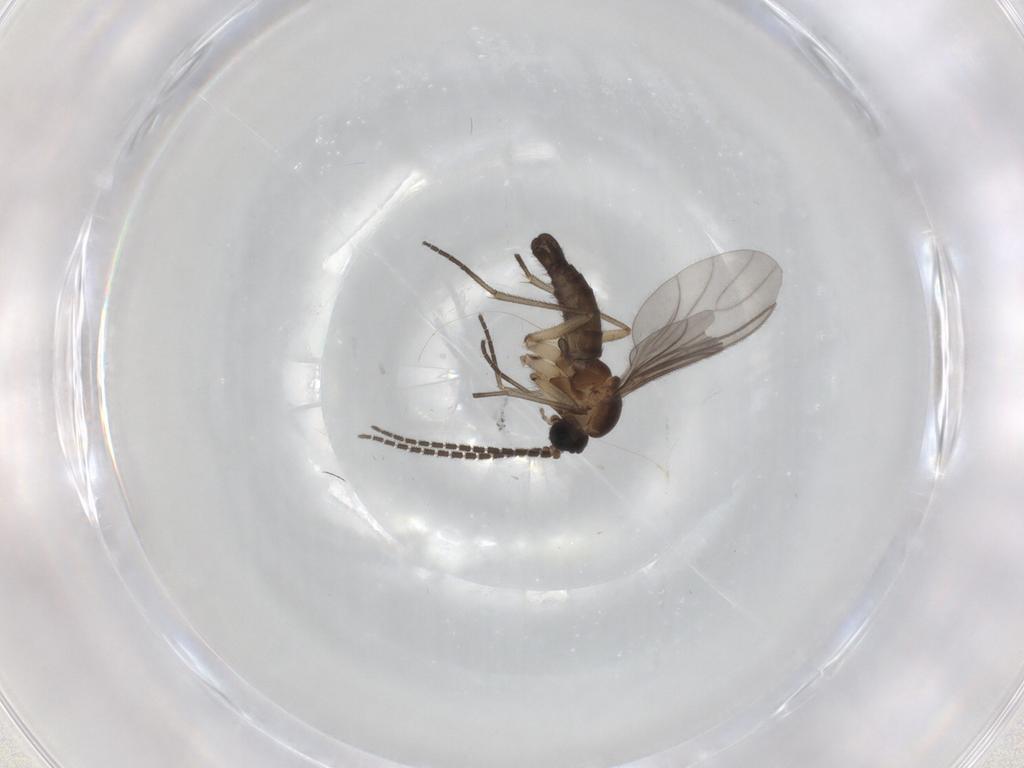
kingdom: Animalia
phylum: Arthropoda
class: Insecta
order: Diptera
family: Sciaridae
